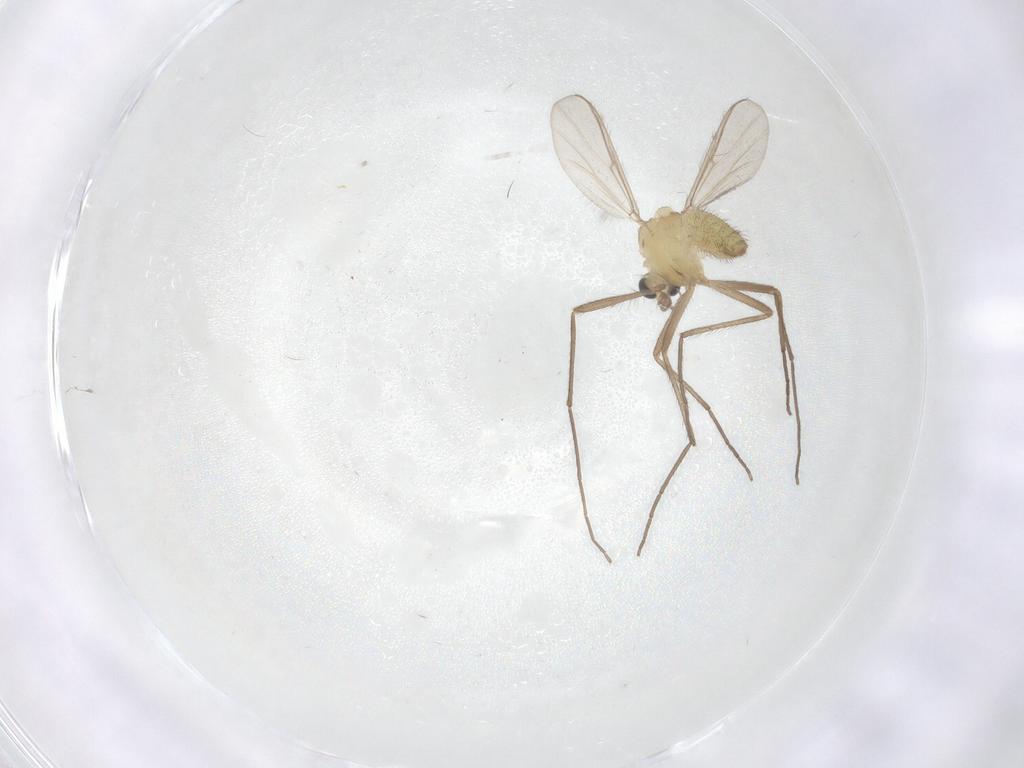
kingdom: Animalia
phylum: Arthropoda
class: Insecta
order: Diptera
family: Chironomidae
